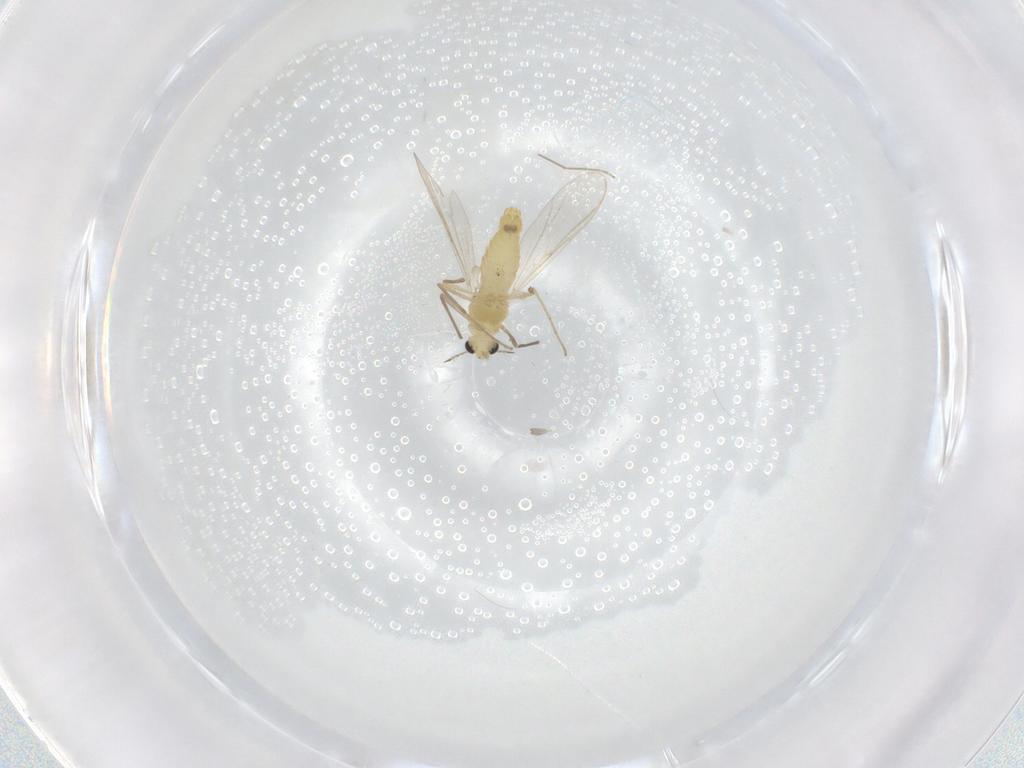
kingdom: Animalia
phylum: Arthropoda
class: Insecta
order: Diptera
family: Chironomidae
